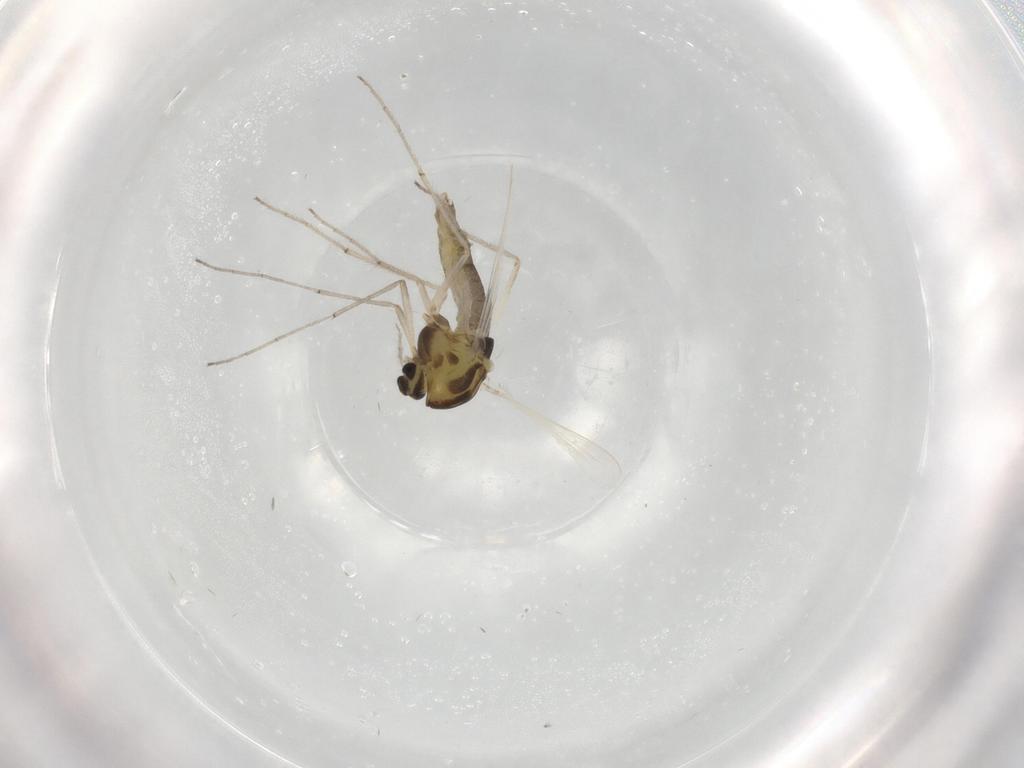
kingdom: Animalia
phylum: Arthropoda
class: Insecta
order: Diptera
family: Chironomidae
